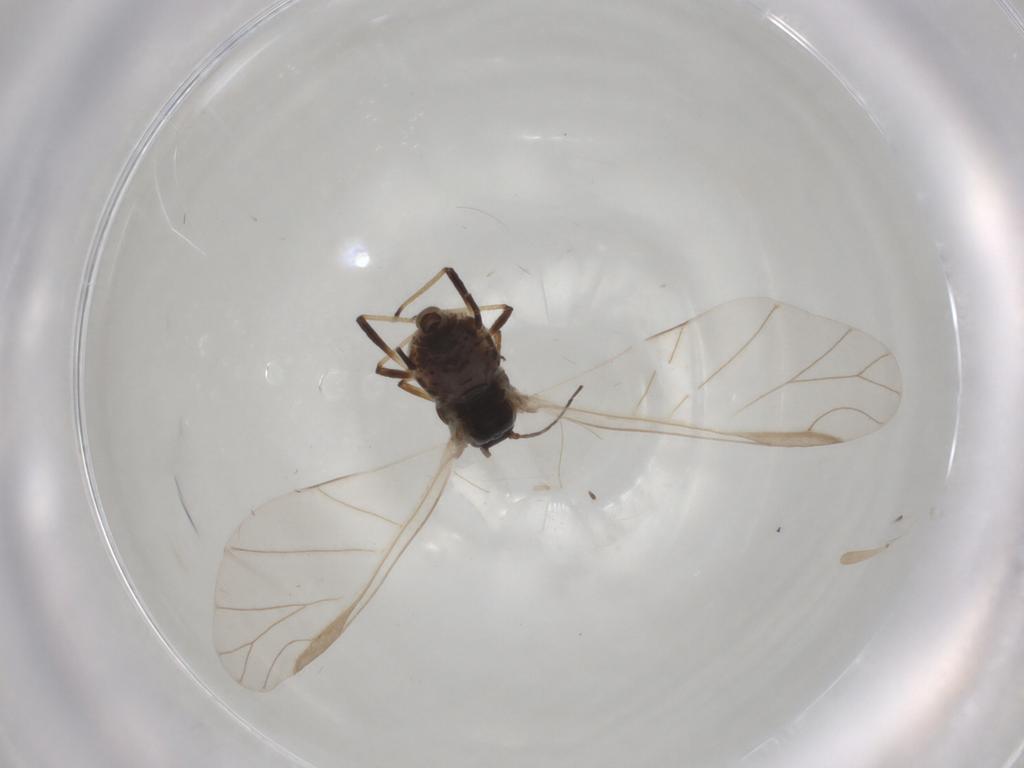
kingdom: Animalia
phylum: Arthropoda
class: Insecta
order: Hemiptera
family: Aphididae
